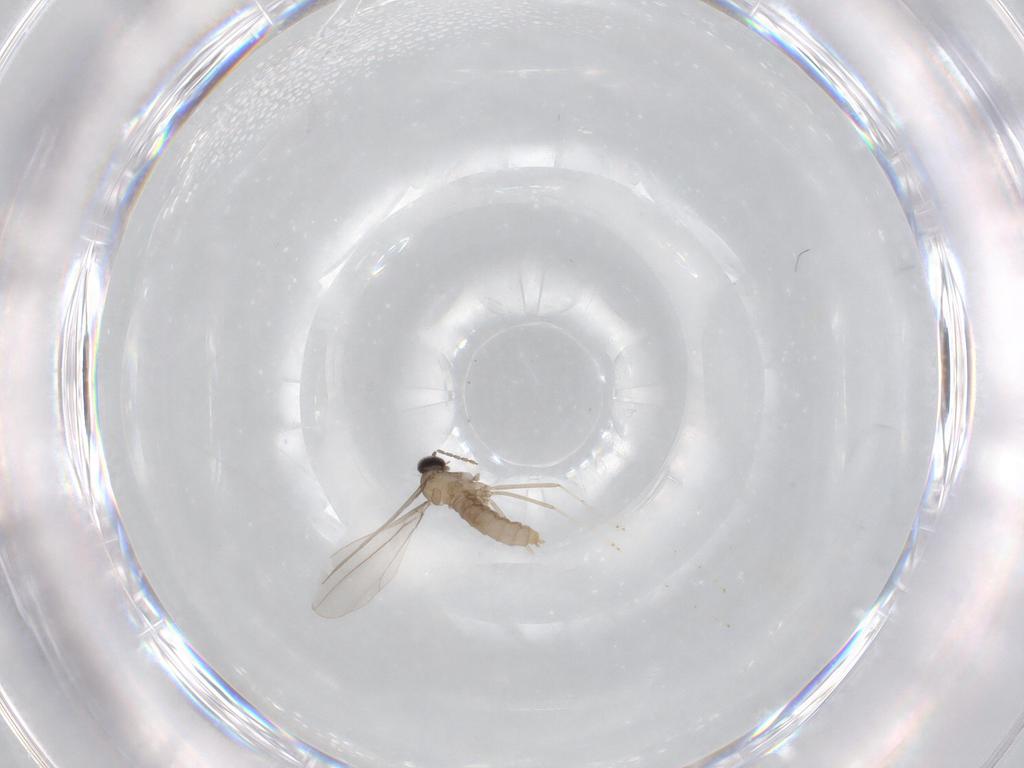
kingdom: Animalia
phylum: Arthropoda
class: Insecta
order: Diptera
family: Cecidomyiidae
